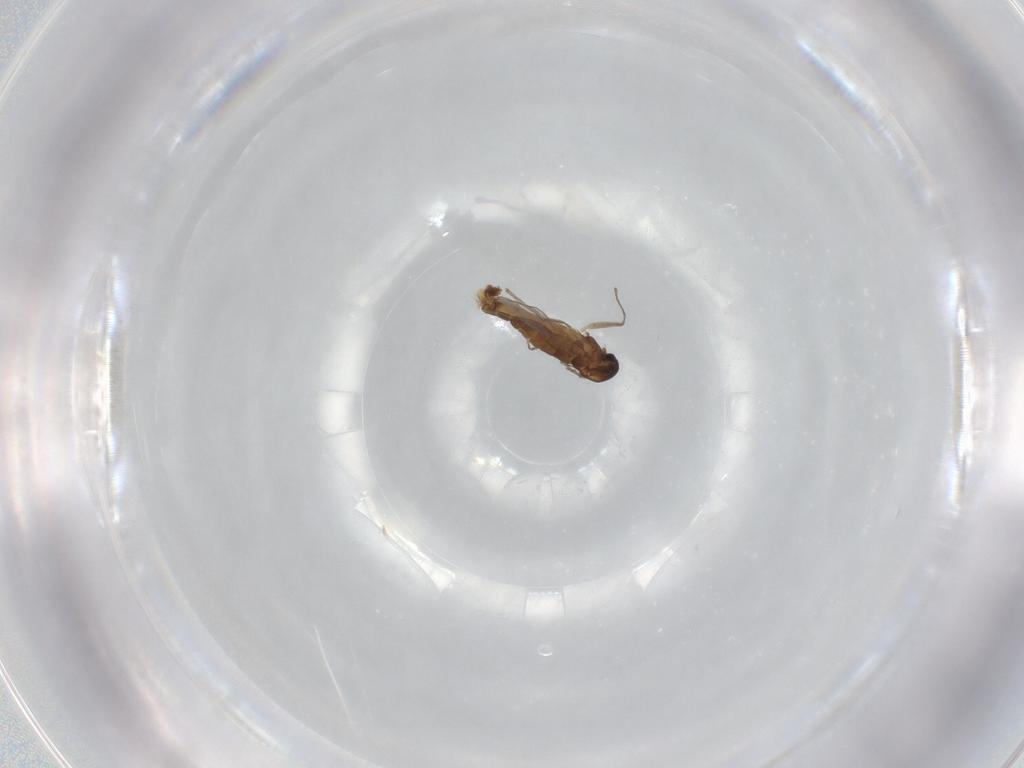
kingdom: Animalia
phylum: Arthropoda
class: Insecta
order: Diptera
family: Mycetophilidae
